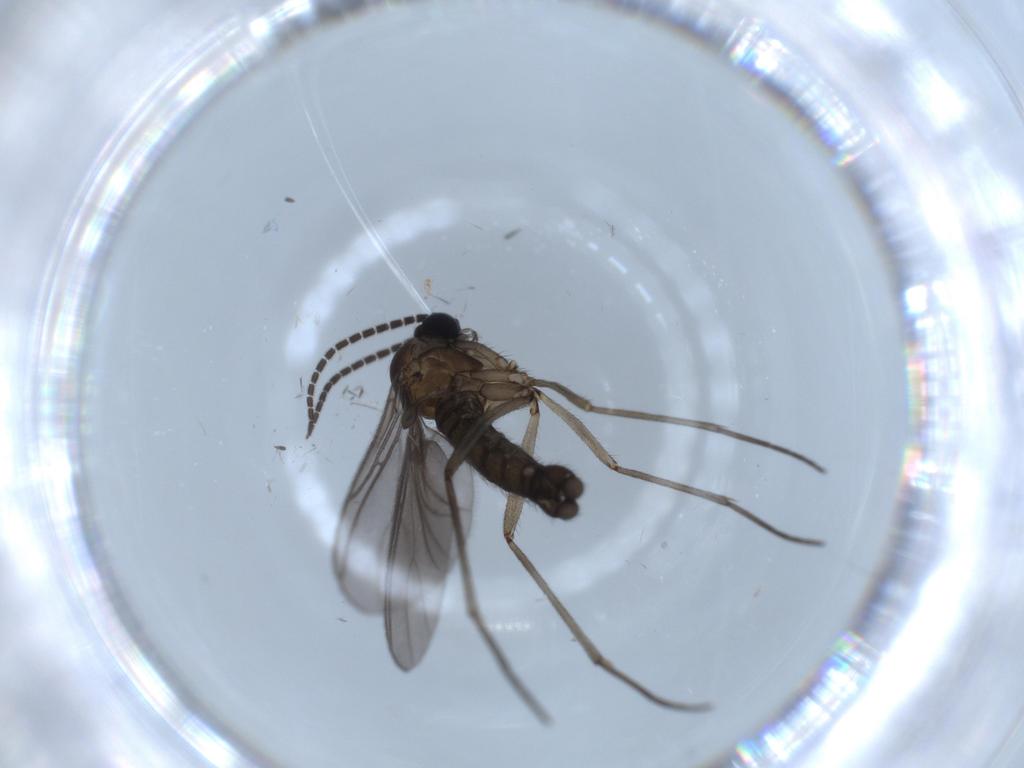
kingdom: Animalia
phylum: Arthropoda
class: Insecta
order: Diptera
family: Sciaridae
